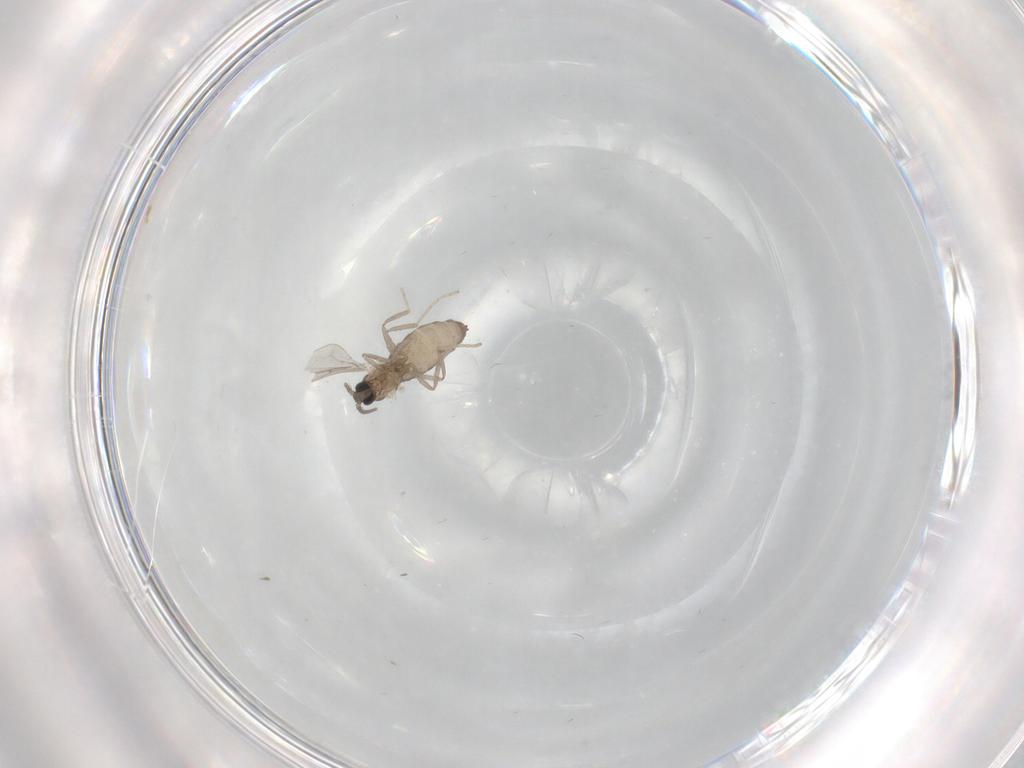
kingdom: Animalia
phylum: Arthropoda
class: Insecta
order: Diptera
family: Cecidomyiidae
